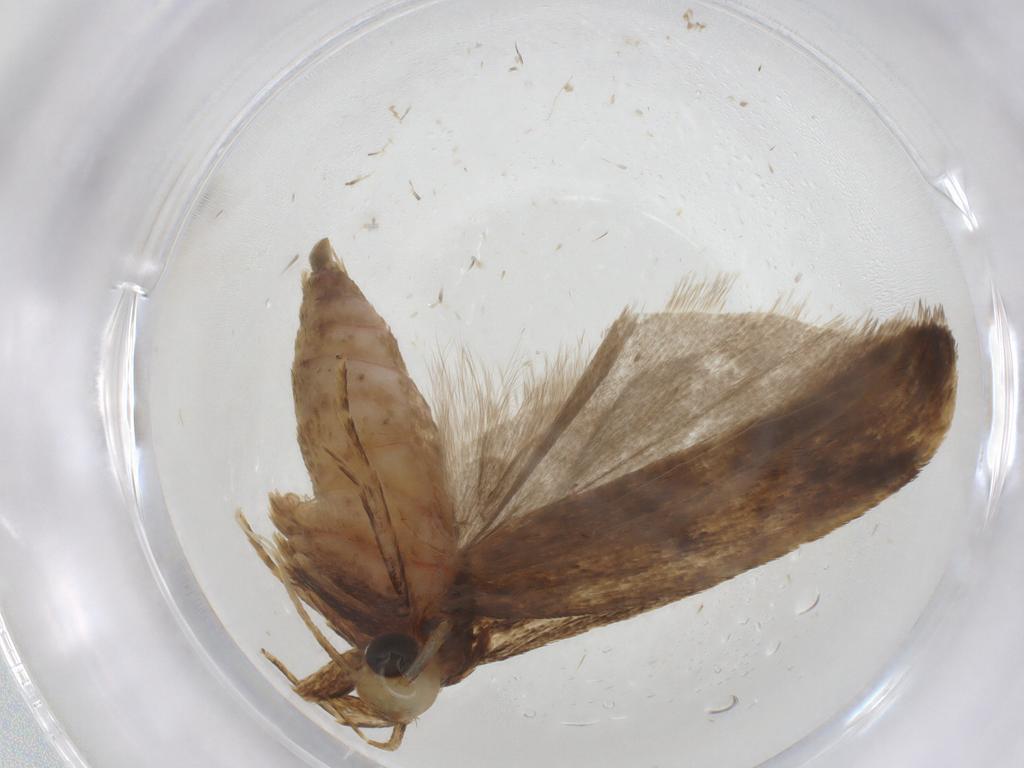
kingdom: Animalia
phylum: Arthropoda
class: Insecta
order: Lepidoptera
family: Autostichidae
